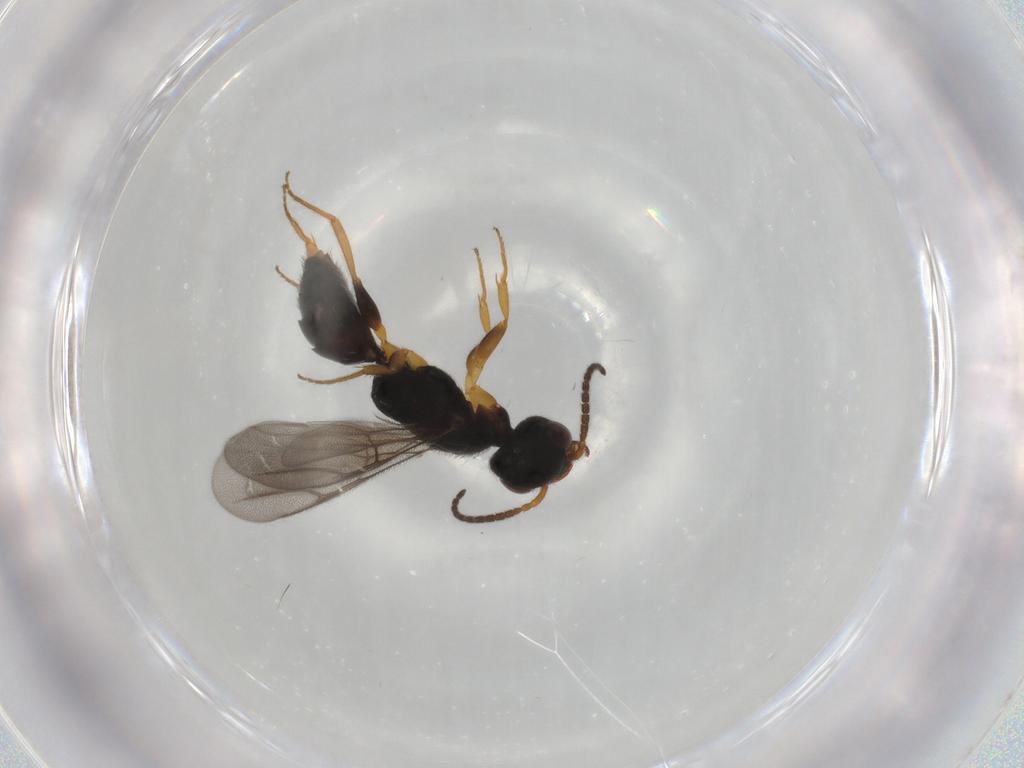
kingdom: Animalia
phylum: Arthropoda
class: Insecta
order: Hymenoptera
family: Bethylidae
